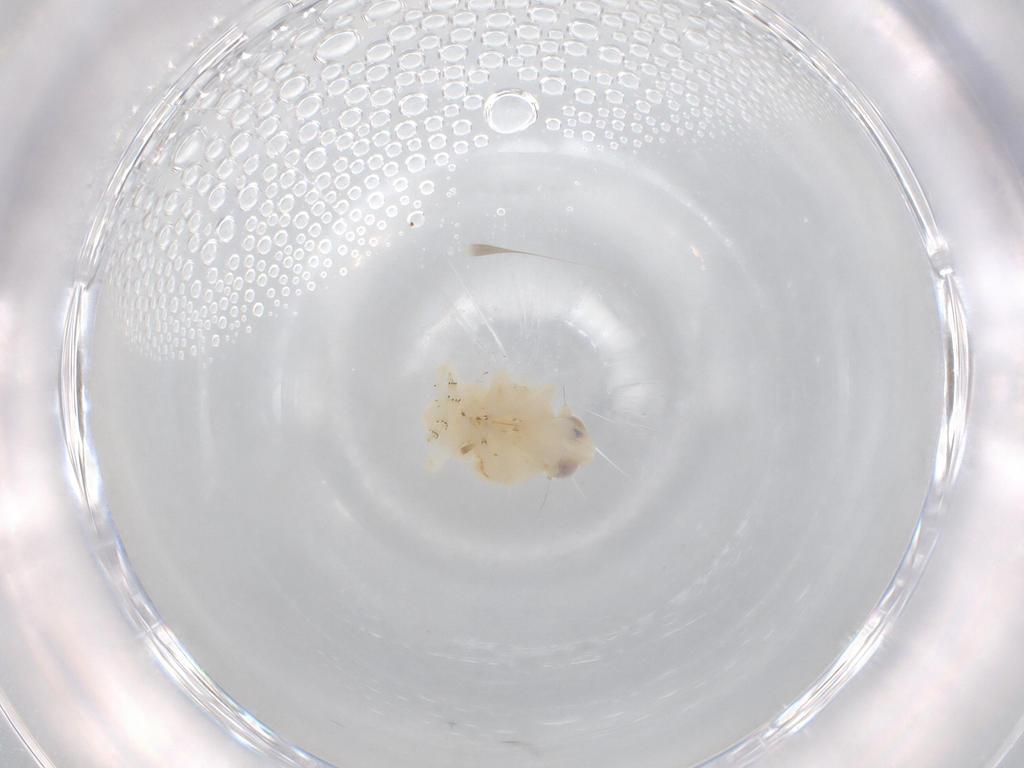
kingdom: Animalia
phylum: Arthropoda
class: Insecta
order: Hemiptera
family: Nogodinidae
